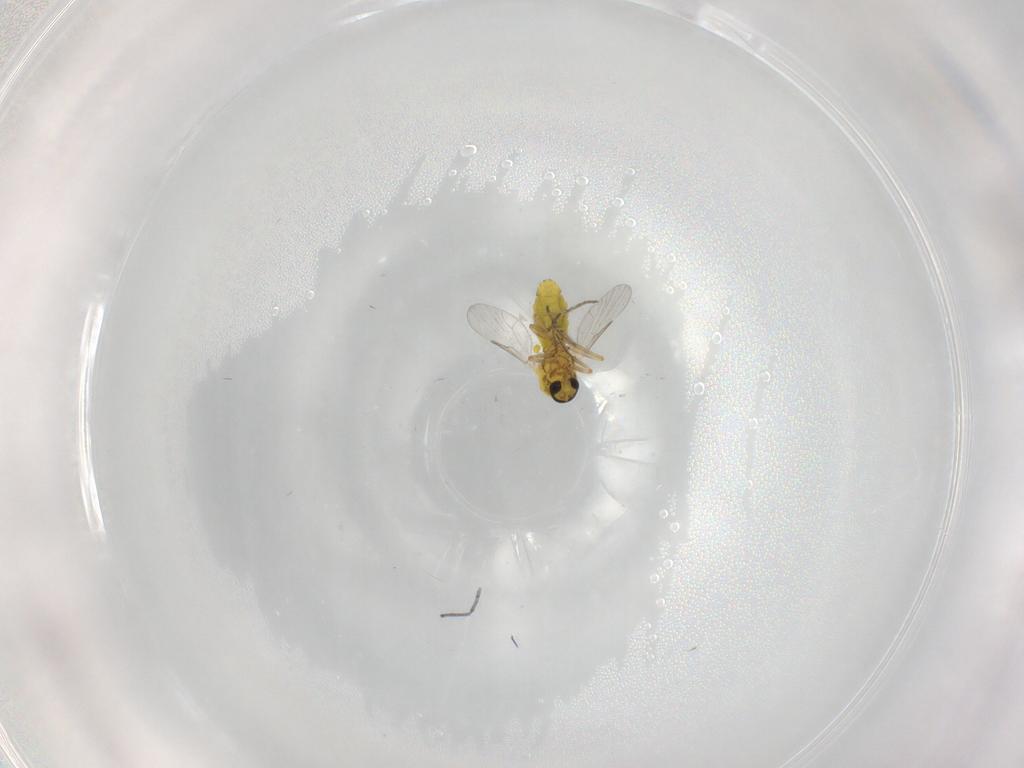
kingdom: Animalia
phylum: Arthropoda
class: Insecta
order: Diptera
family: Ceratopogonidae
